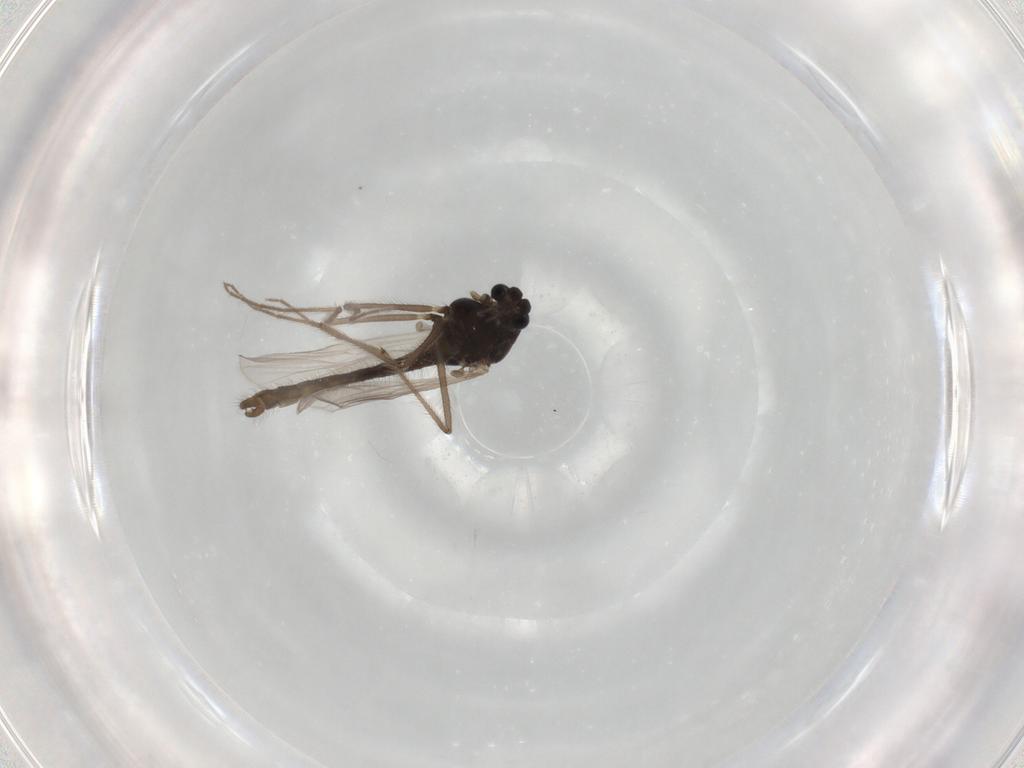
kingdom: Animalia
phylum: Arthropoda
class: Insecta
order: Diptera
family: Chironomidae
